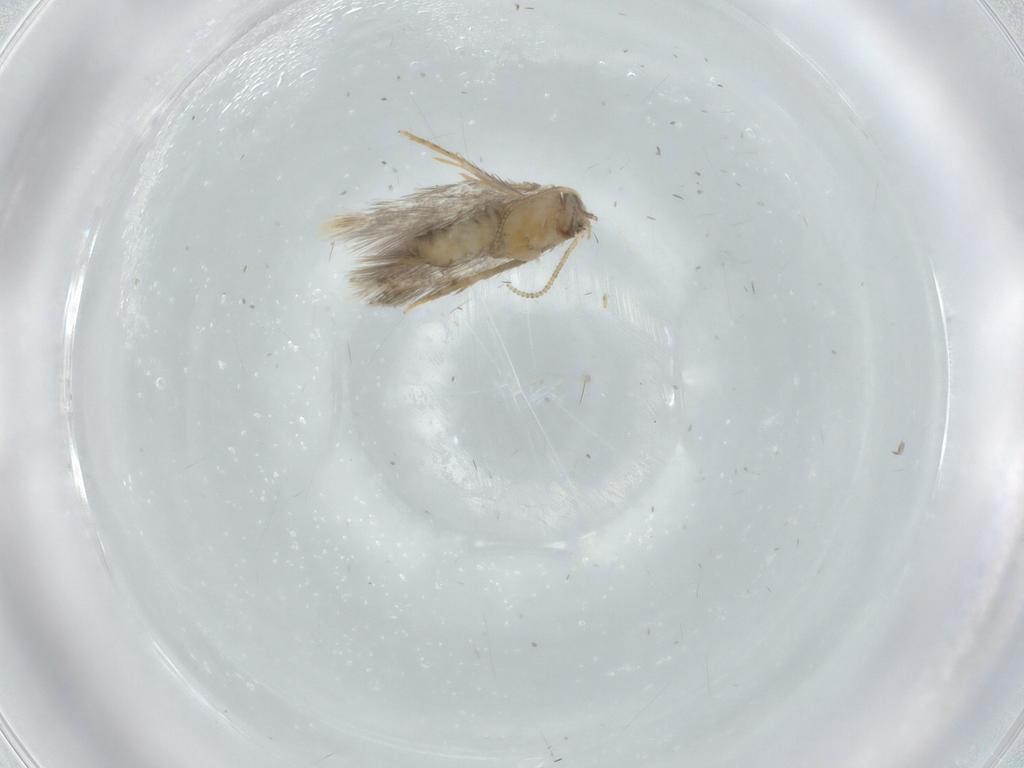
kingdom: Animalia
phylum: Arthropoda
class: Insecta
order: Lepidoptera
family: Nepticulidae
